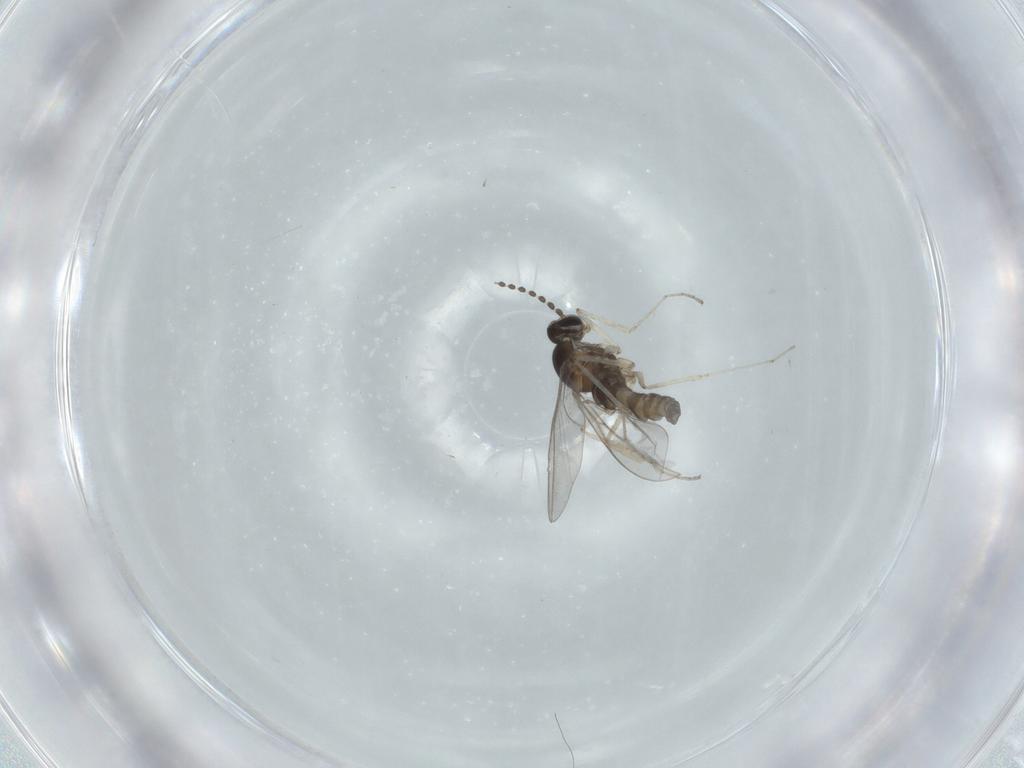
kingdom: Animalia
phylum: Arthropoda
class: Insecta
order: Diptera
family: Cecidomyiidae
